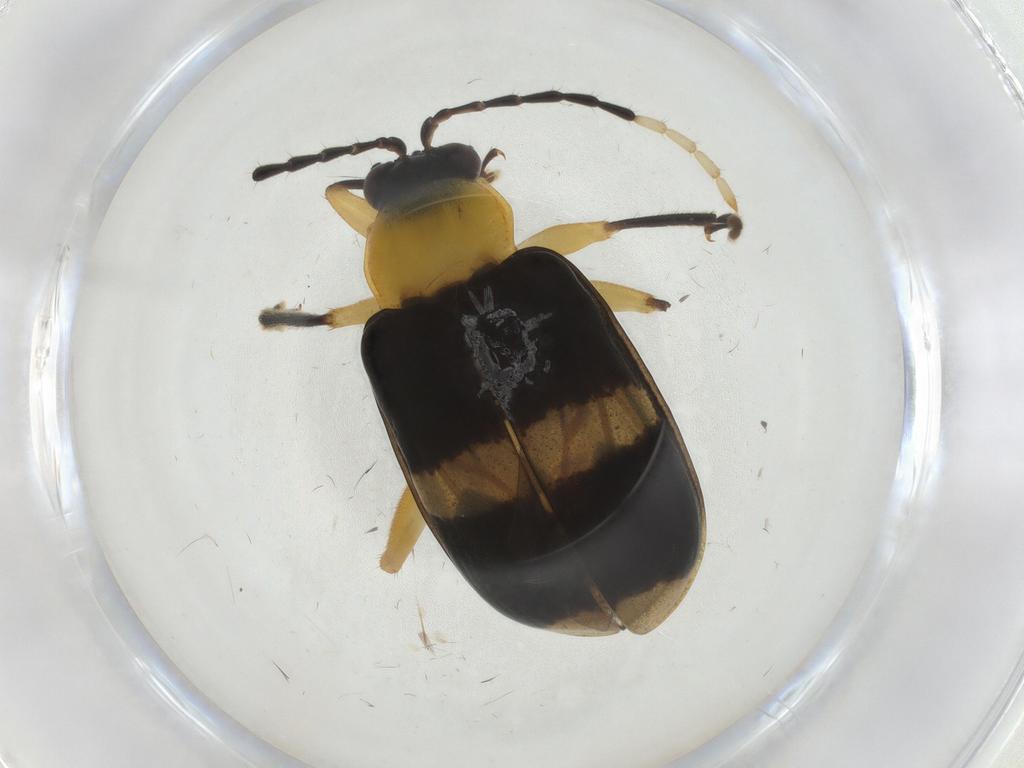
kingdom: Animalia
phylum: Arthropoda
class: Insecta
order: Coleoptera
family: Chrysomelidae
